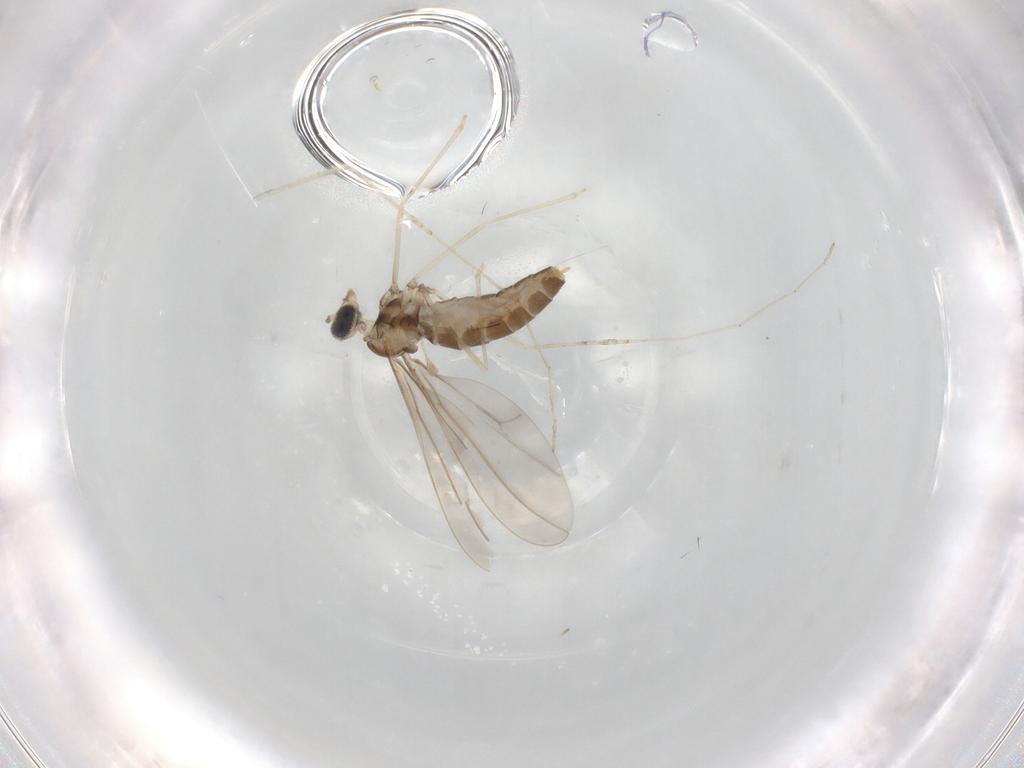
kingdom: Animalia
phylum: Arthropoda
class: Insecta
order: Diptera
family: Cecidomyiidae
